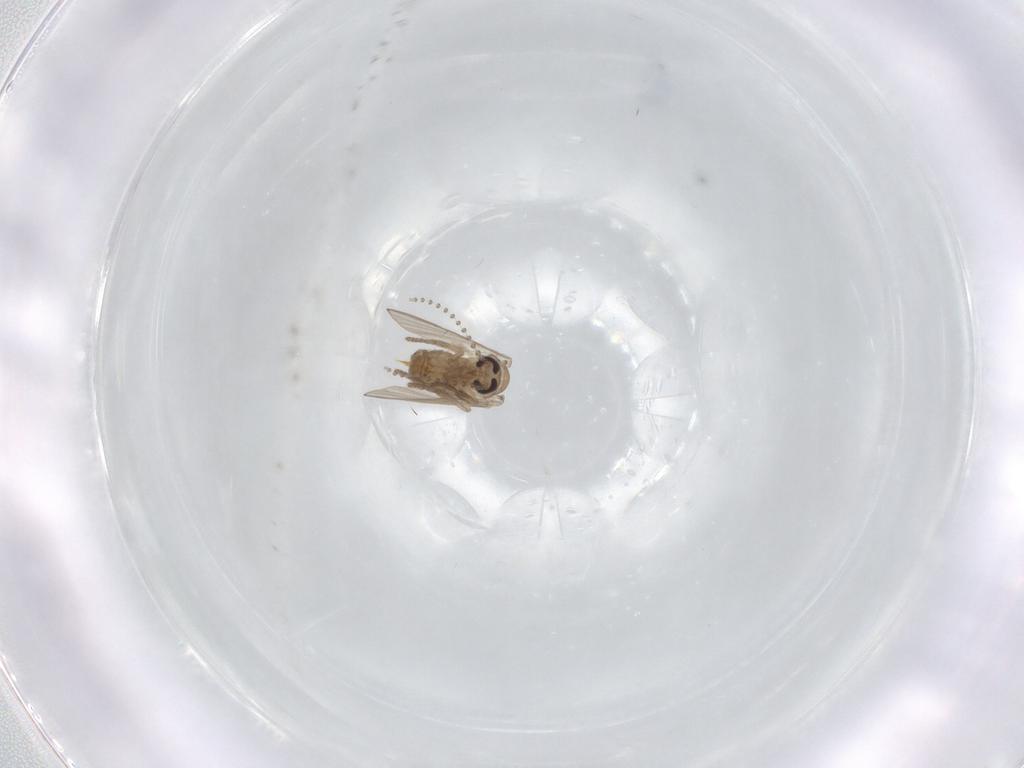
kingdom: Animalia
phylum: Arthropoda
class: Insecta
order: Diptera
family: Psychodidae
